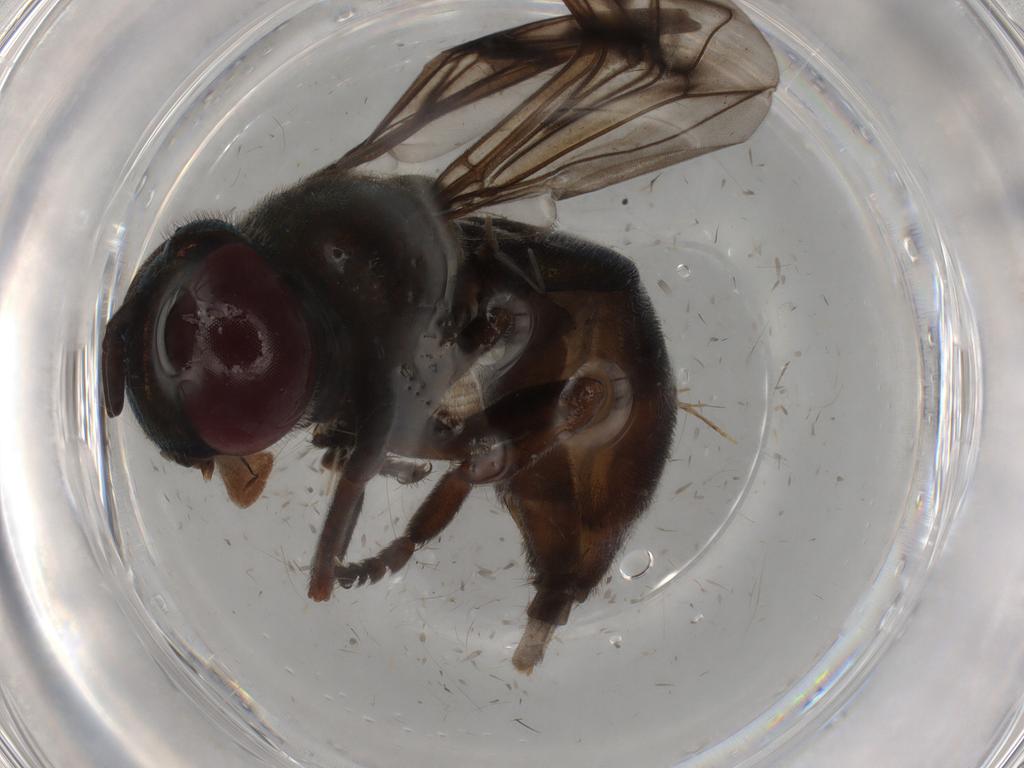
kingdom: Animalia
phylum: Arthropoda
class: Insecta
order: Diptera
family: Syrphidae
